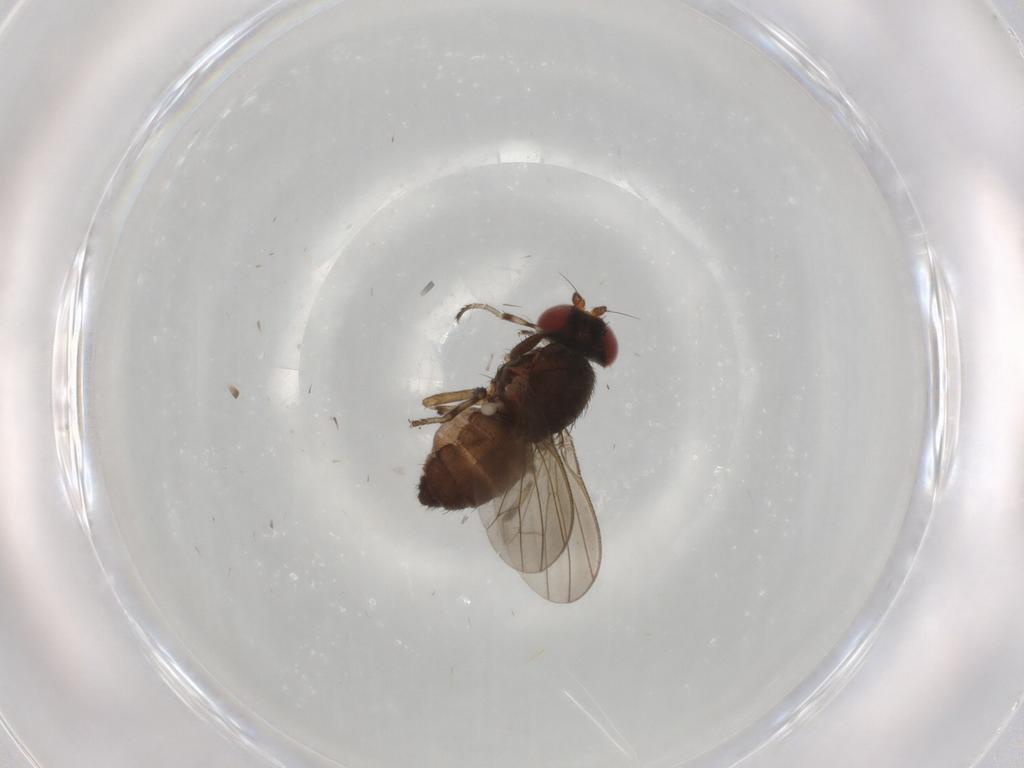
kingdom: Animalia
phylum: Arthropoda
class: Insecta
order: Diptera
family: Heleomyzidae
